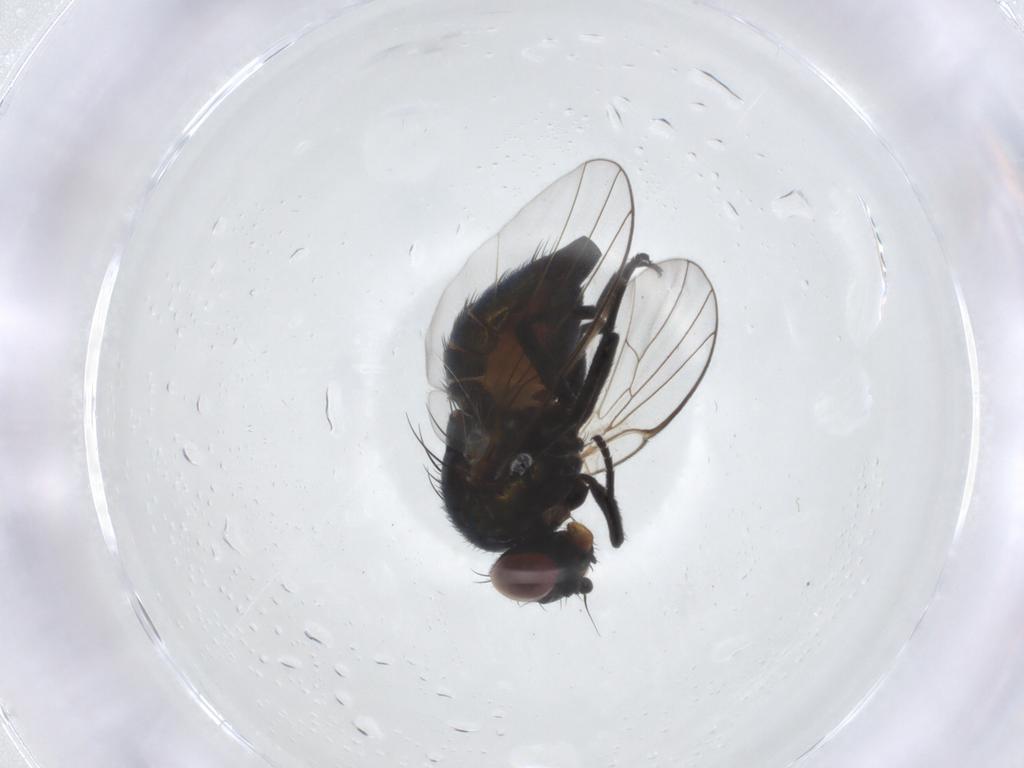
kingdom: Animalia
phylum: Arthropoda
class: Insecta
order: Diptera
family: Agromyzidae
